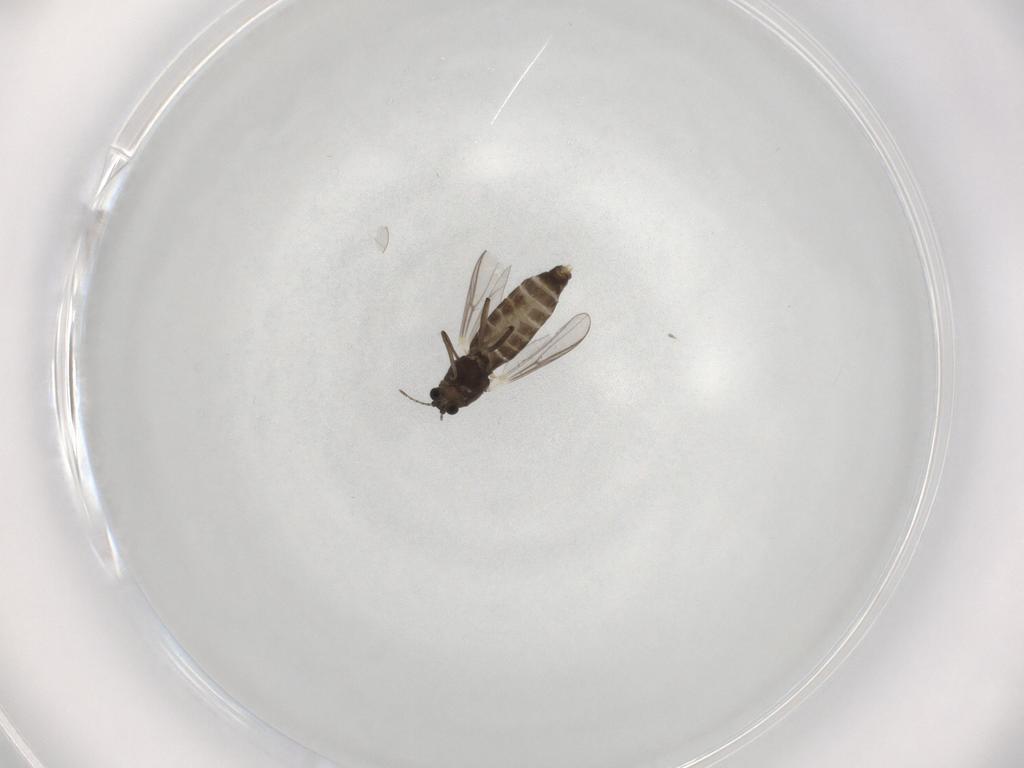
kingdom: Animalia
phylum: Arthropoda
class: Insecta
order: Diptera
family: Chironomidae
